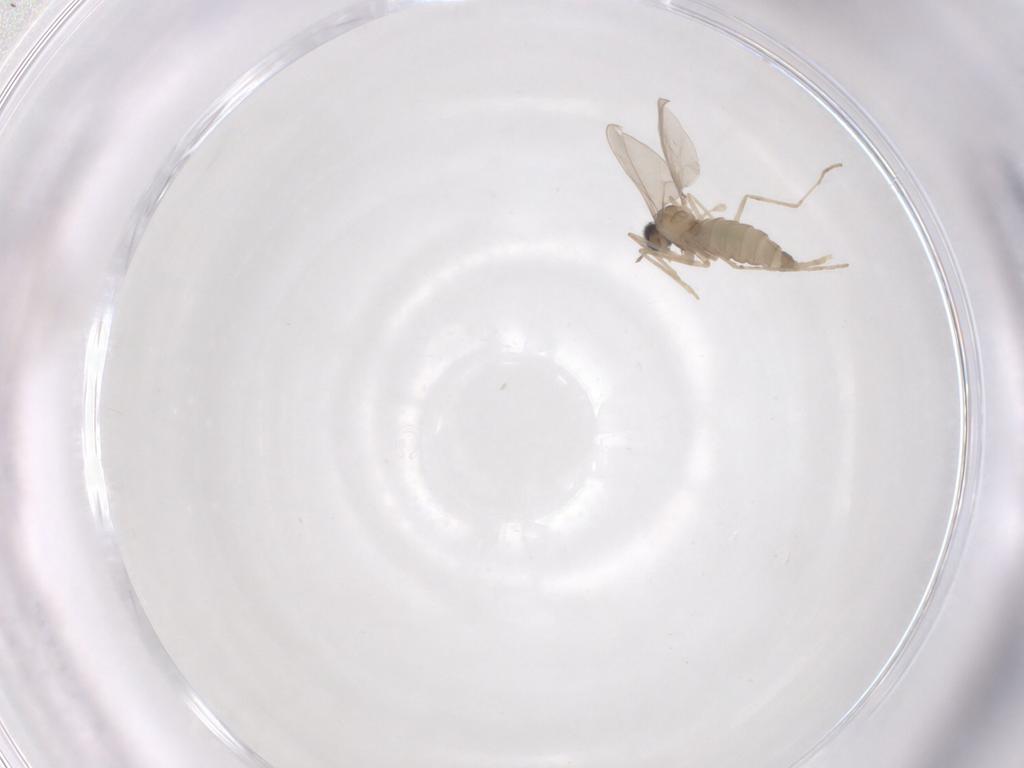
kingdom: Animalia
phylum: Arthropoda
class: Insecta
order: Diptera
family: Cecidomyiidae
